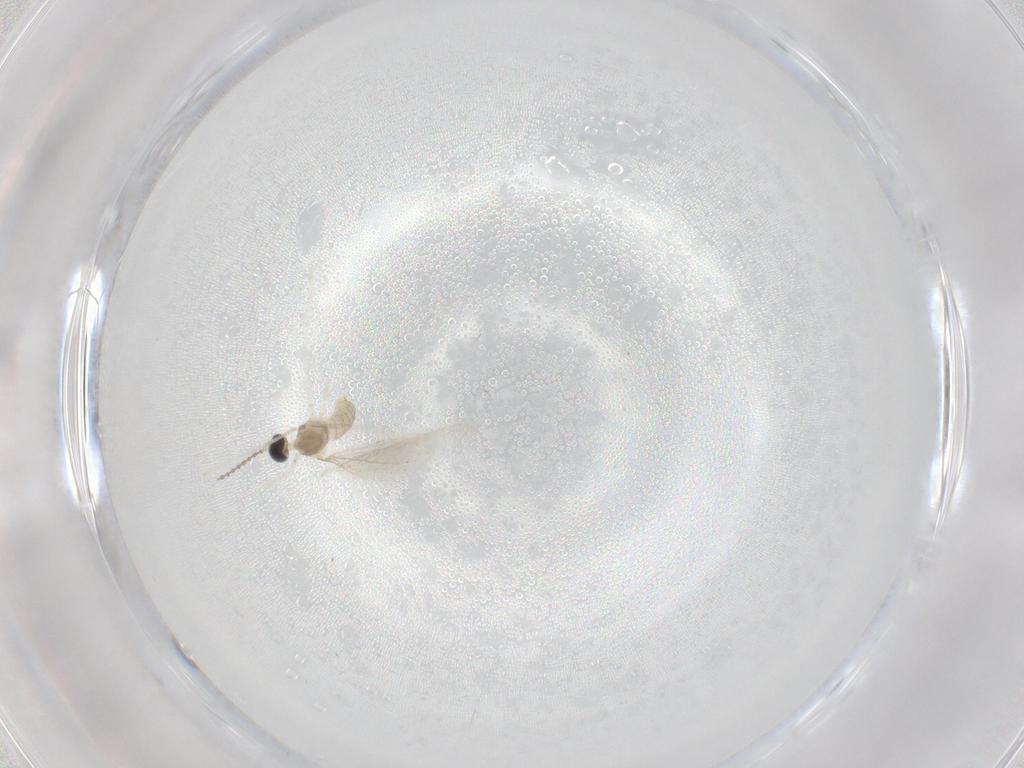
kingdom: Animalia
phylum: Arthropoda
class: Insecta
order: Diptera
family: Cecidomyiidae
